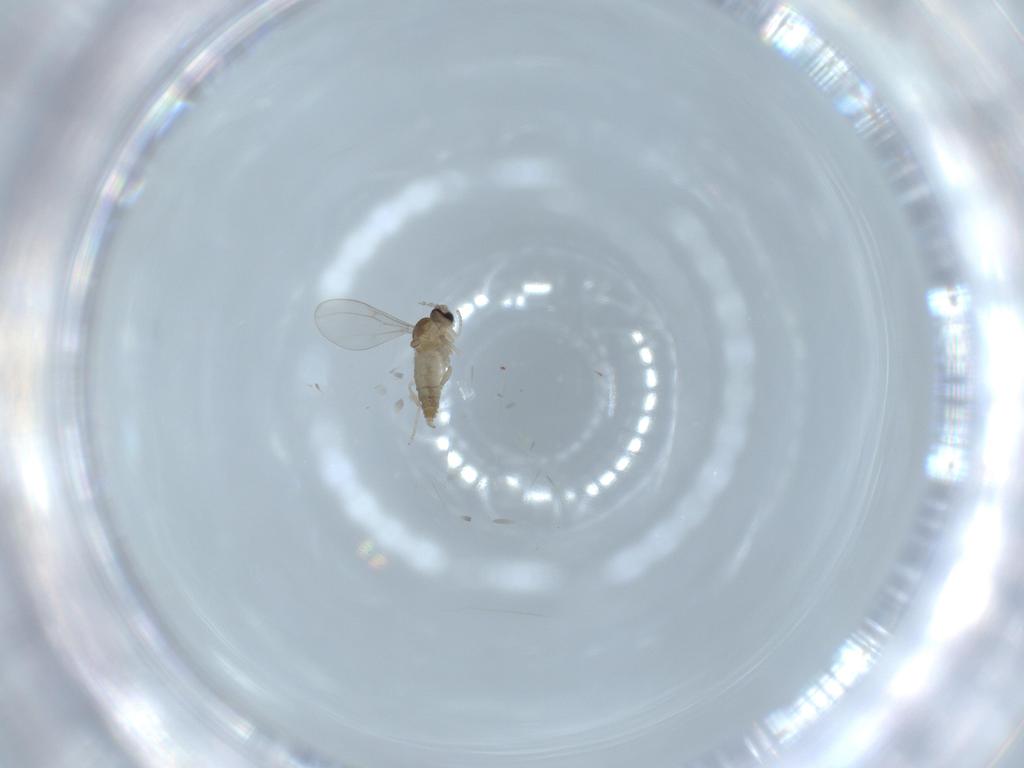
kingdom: Animalia
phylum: Arthropoda
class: Insecta
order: Diptera
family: Cecidomyiidae
